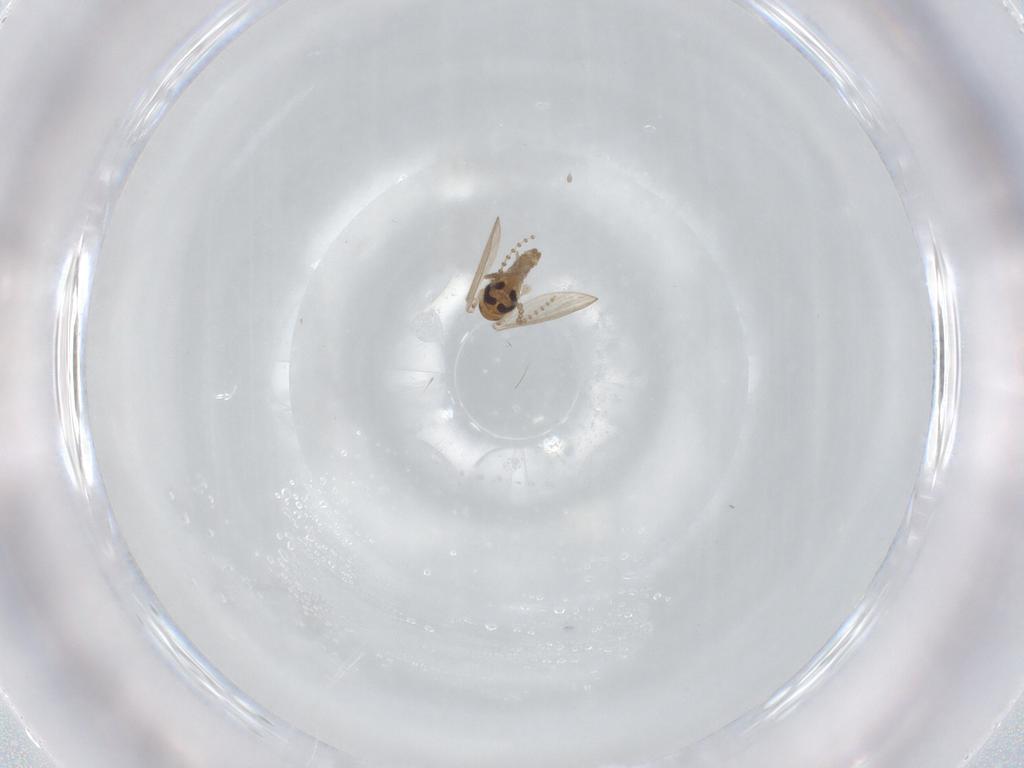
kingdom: Animalia
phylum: Arthropoda
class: Insecta
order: Diptera
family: Psychodidae
